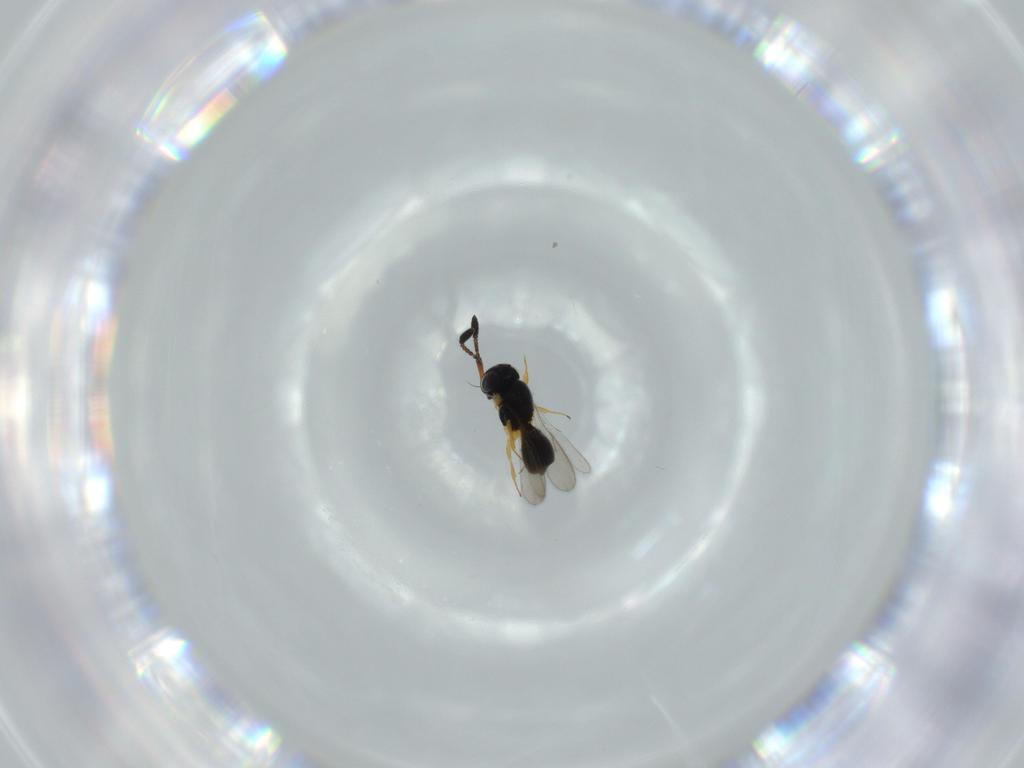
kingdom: Animalia
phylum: Arthropoda
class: Insecta
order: Hymenoptera
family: Scelionidae
